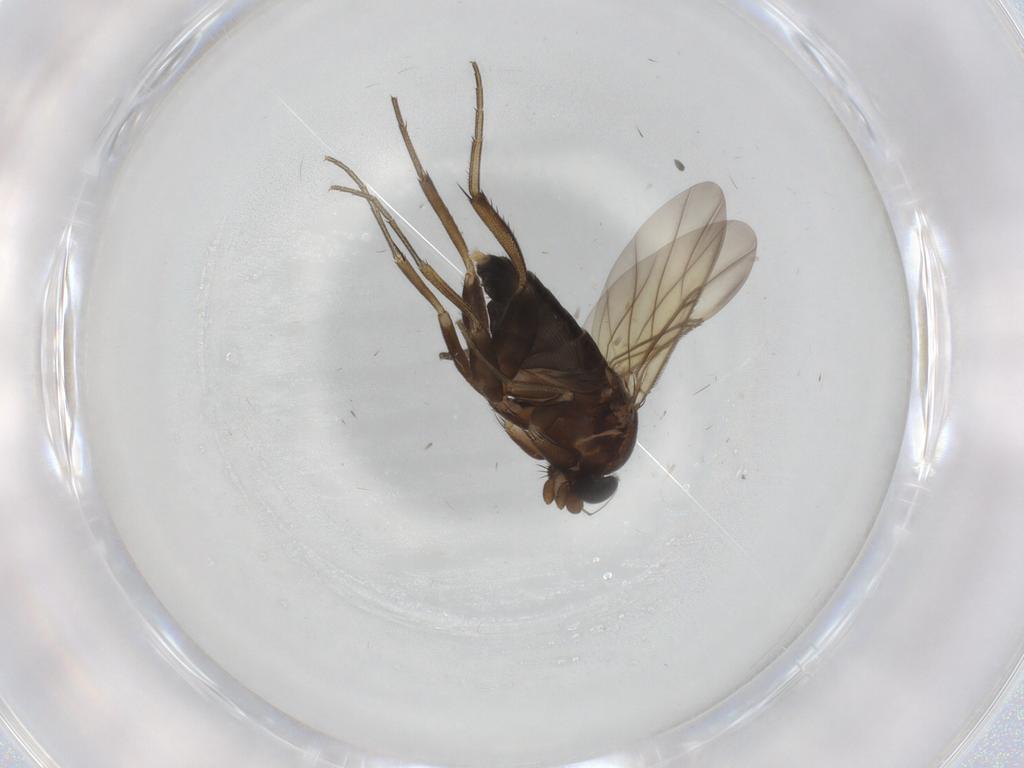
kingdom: Animalia
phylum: Arthropoda
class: Insecta
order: Diptera
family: Phoridae
